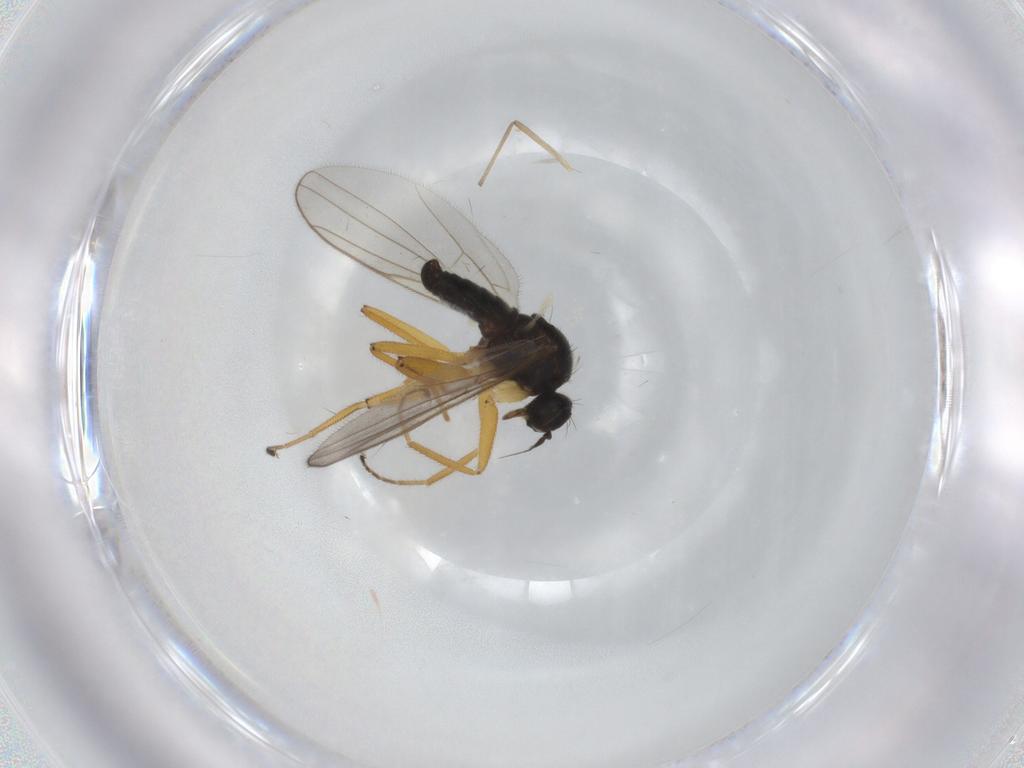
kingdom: Animalia
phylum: Arthropoda
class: Insecta
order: Diptera
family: Hybotidae
